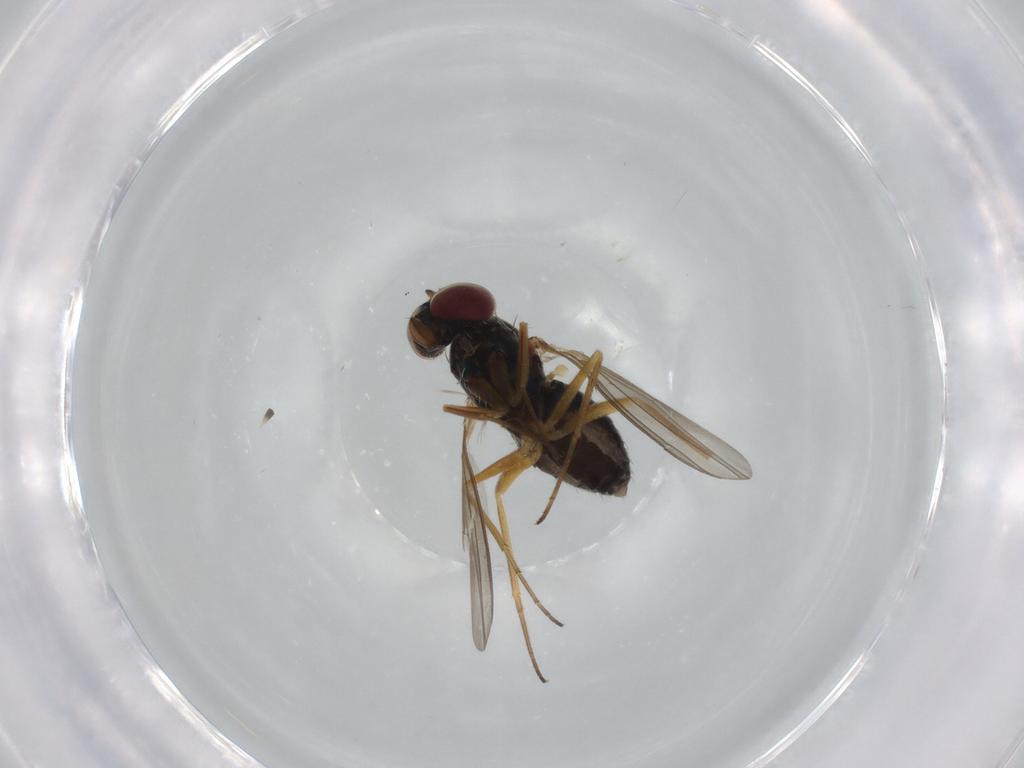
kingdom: Animalia
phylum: Arthropoda
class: Insecta
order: Diptera
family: Dolichopodidae
